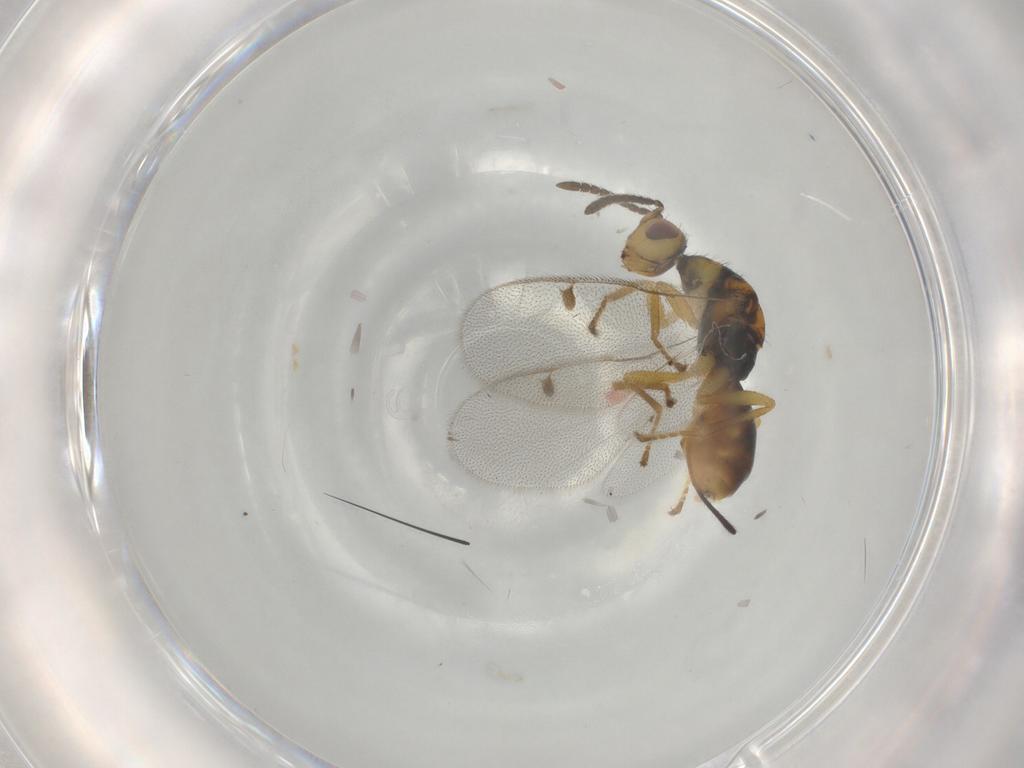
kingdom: Animalia
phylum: Arthropoda
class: Insecta
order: Hymenoptera
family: Megastigmidae
